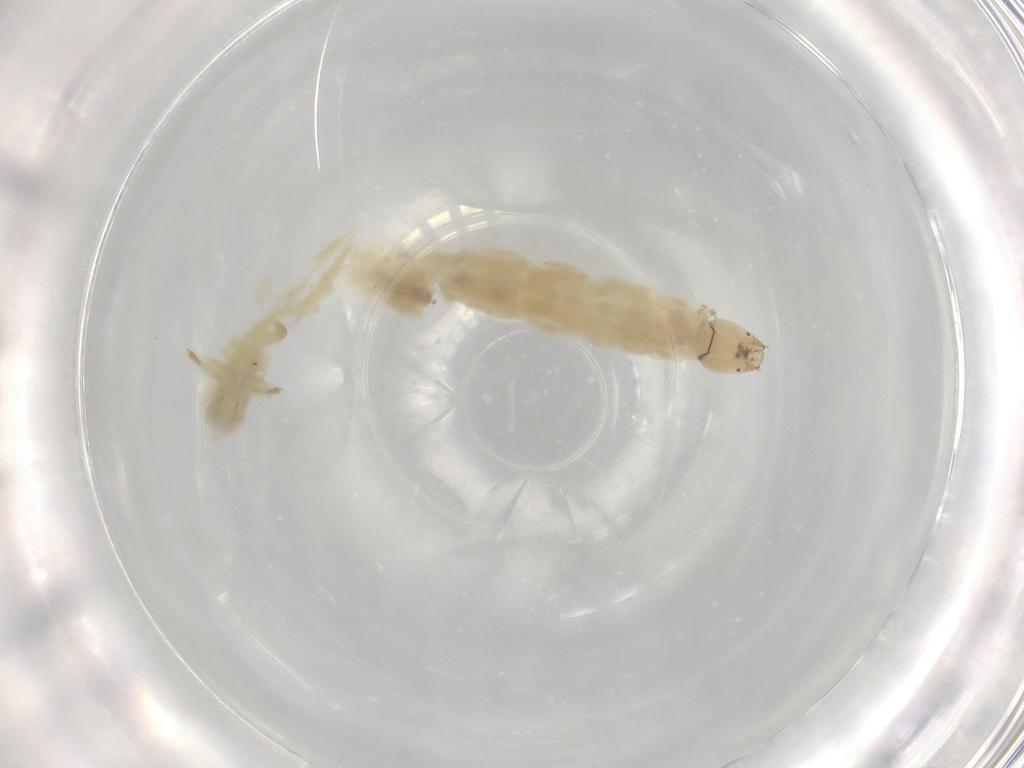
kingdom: Animalia
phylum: Arthropoda
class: Insecta
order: Diptera
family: Chironomidae
